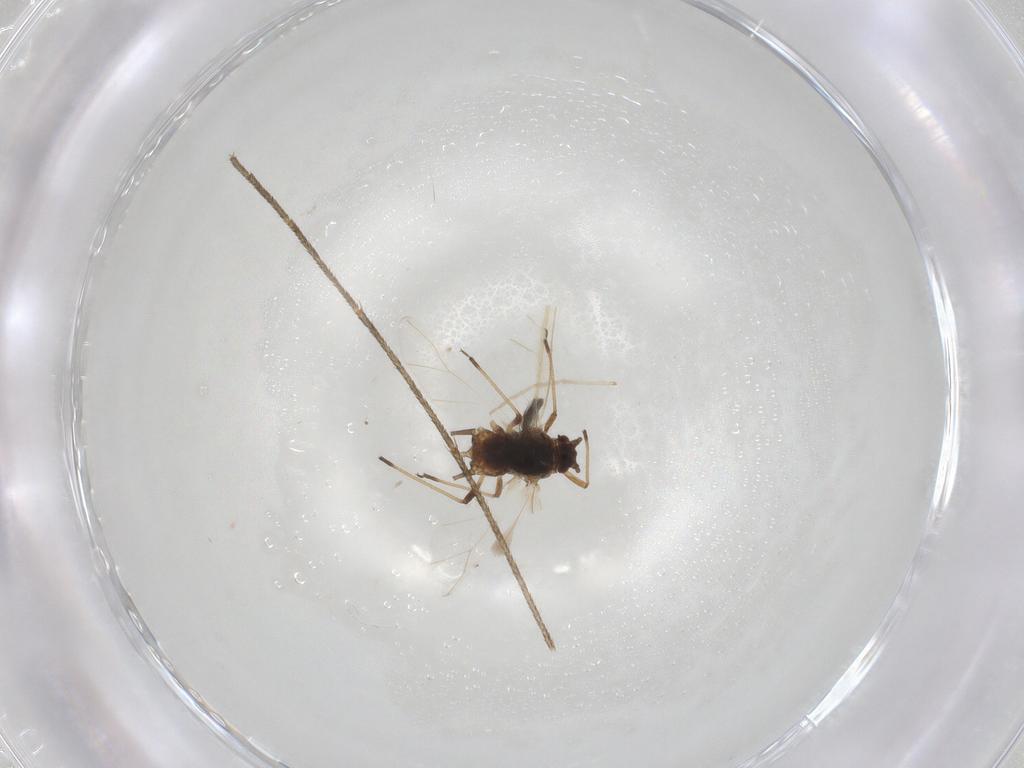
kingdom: Animalia
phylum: Arthropoda
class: Insecta
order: Hemiptera
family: Aphididae
